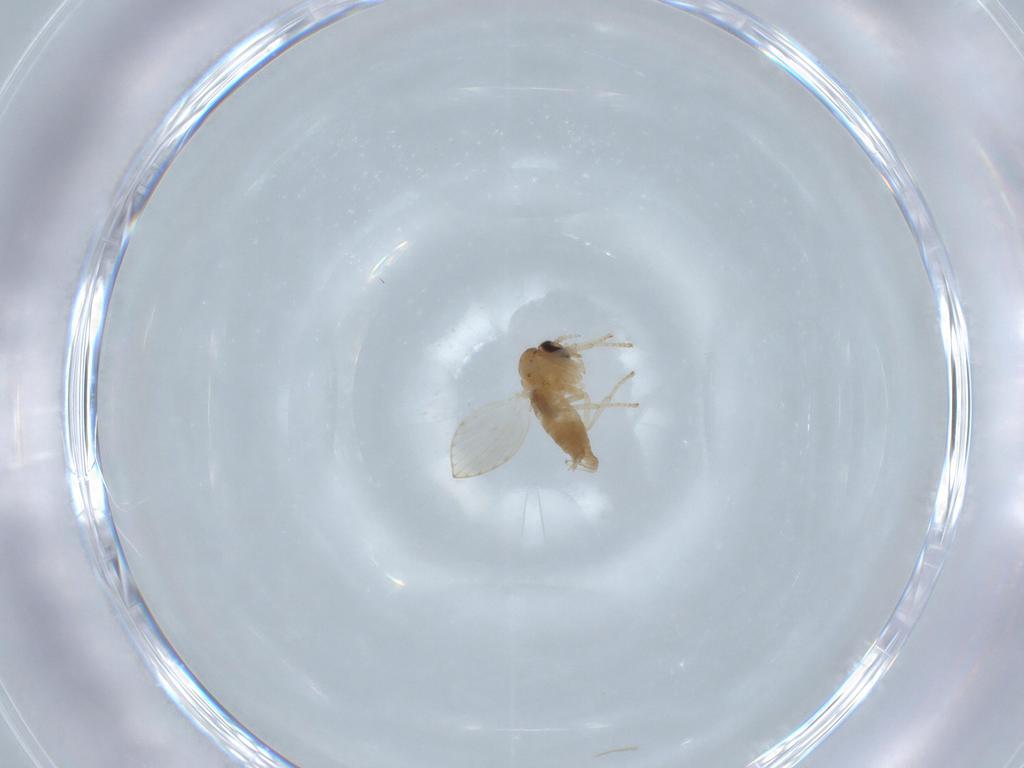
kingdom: Animalia
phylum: Arthropoda
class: Insecta
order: Diptera
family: Psychodidae
